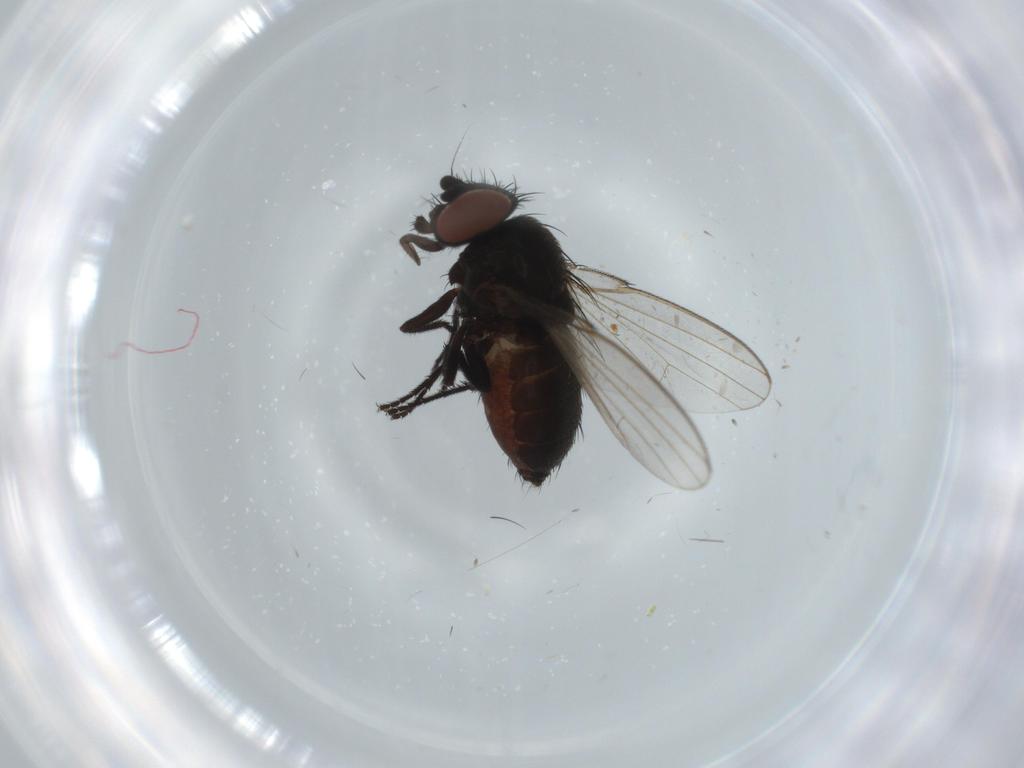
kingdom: Animalia
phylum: Arthropoda
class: Insecta
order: Diptera
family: Milichiidae
